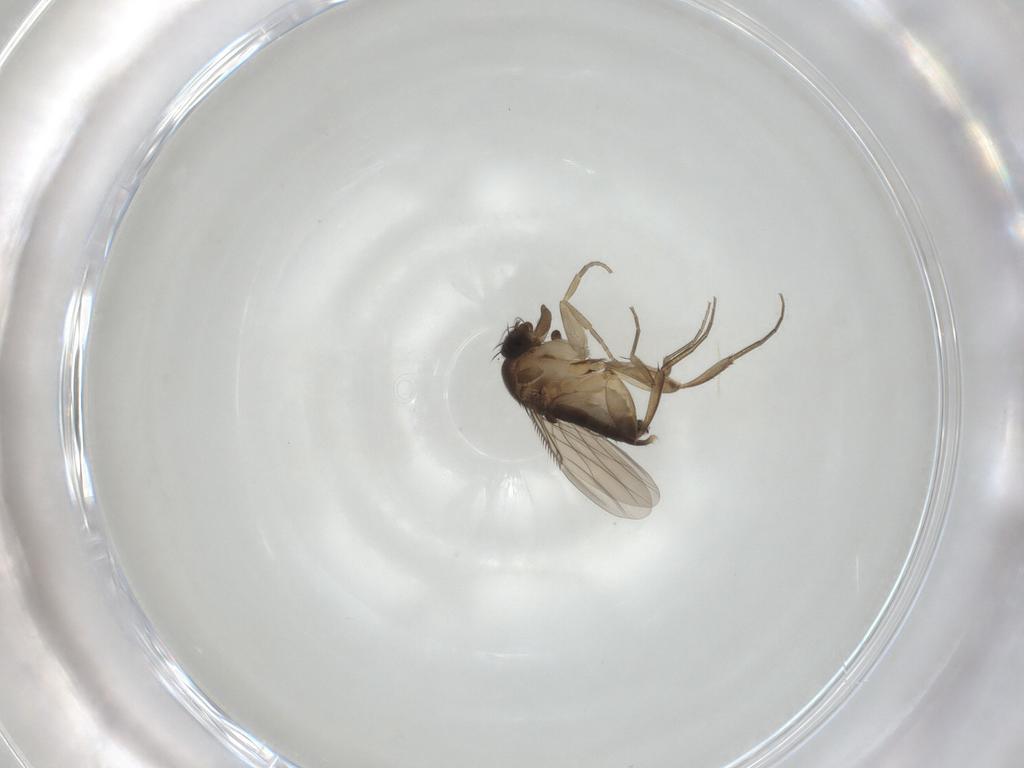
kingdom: Animalia
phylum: Arthropoda
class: Insecta
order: Diptera
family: Phoridae
